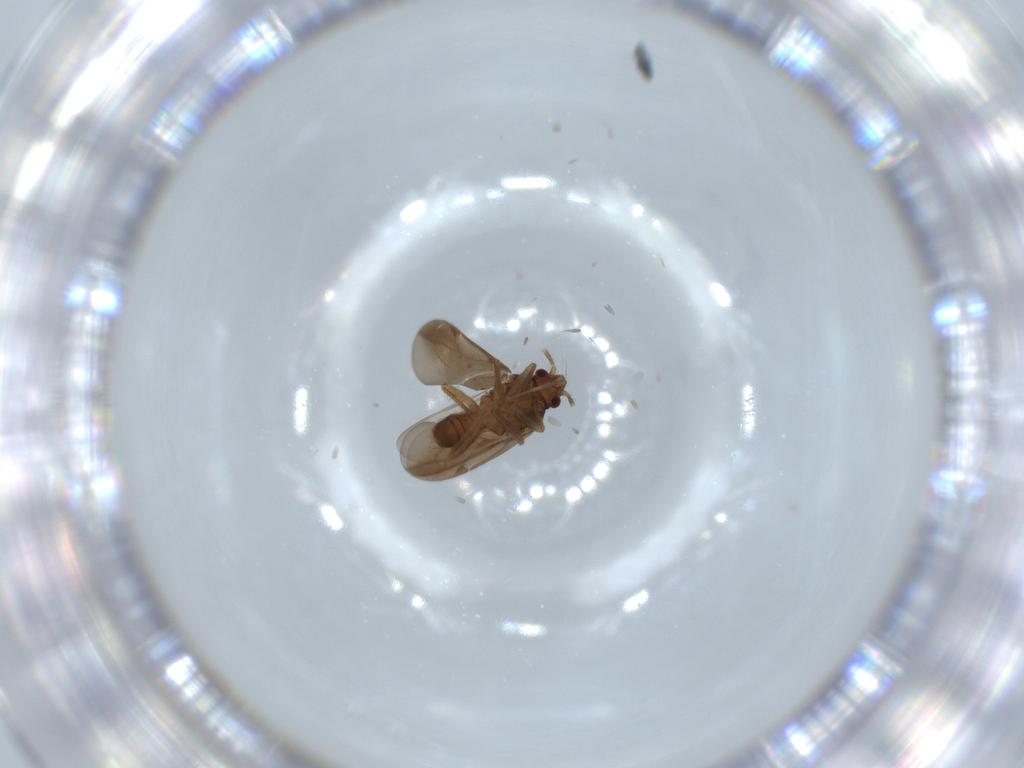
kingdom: Animalia
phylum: Arthropoda
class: Insecta
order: Hemiptera
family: Ceratocombidae
